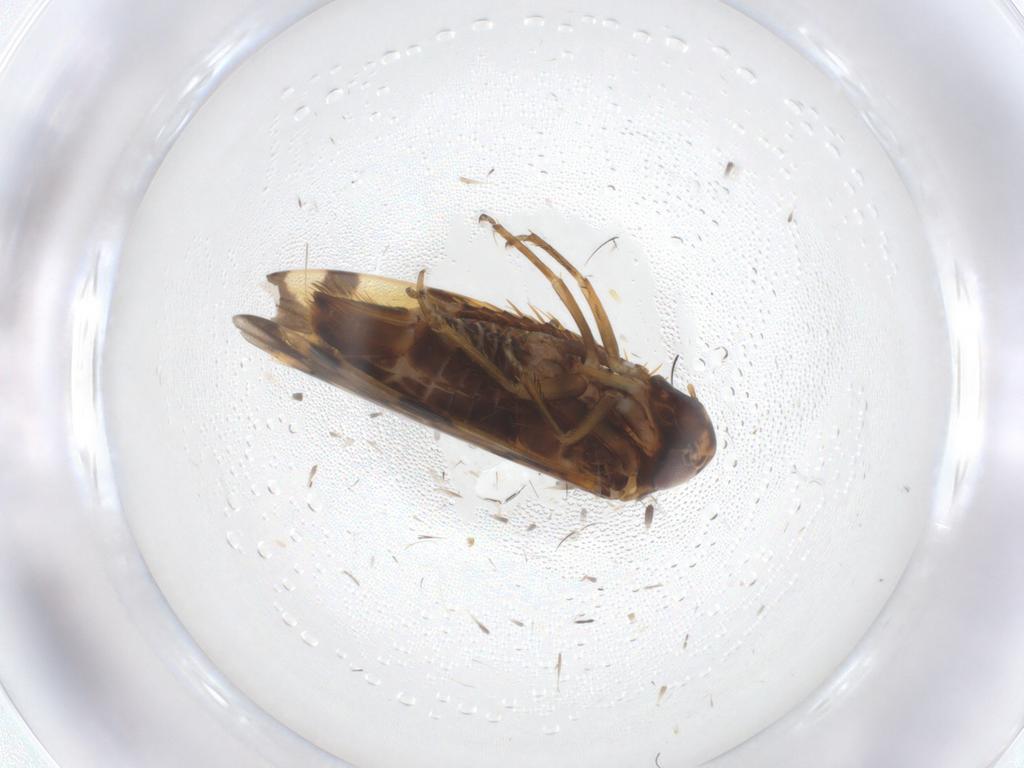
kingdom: Animalia
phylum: Arthropoda
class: Insecta
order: Hemiptera
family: Cicadellidae
